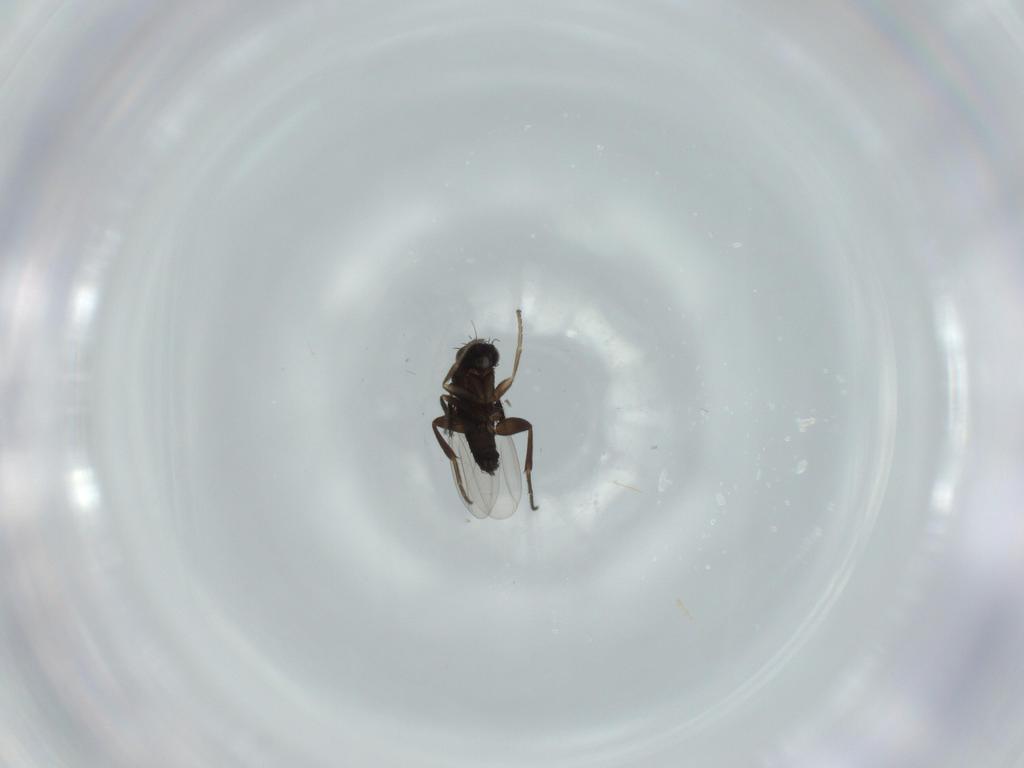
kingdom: Animalia
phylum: Arthropoda
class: Insecta
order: Diptera
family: Phoridae
